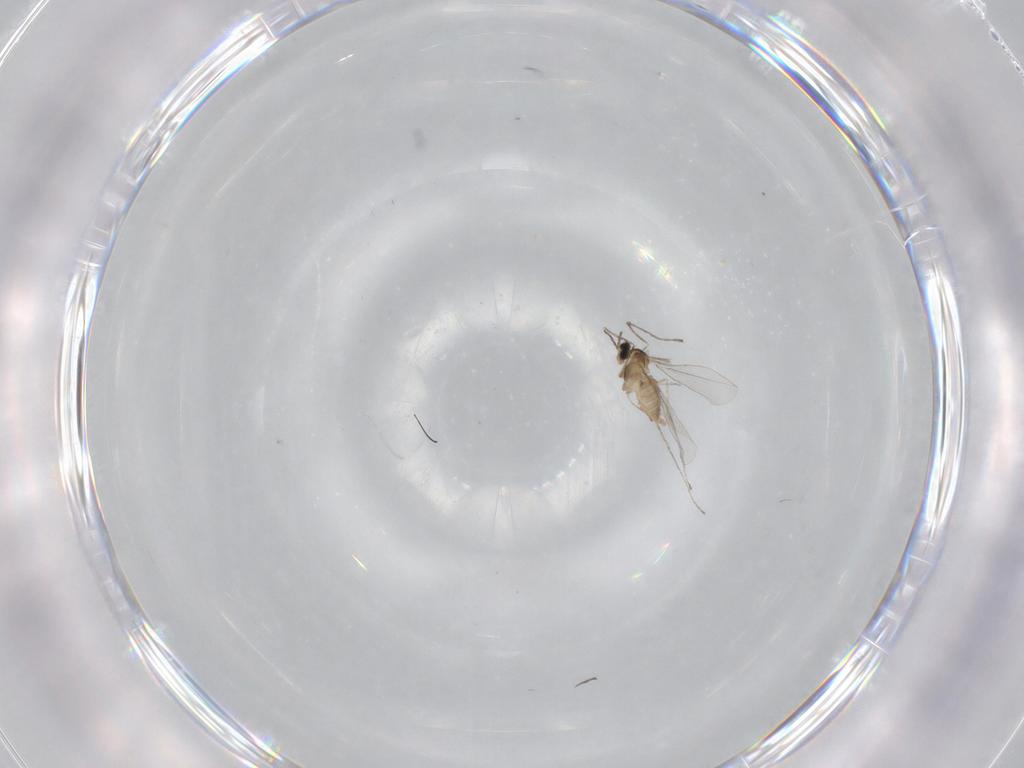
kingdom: Animalia
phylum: Arthropoda
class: Insecta
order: Diptera
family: Cecidomyiidae
